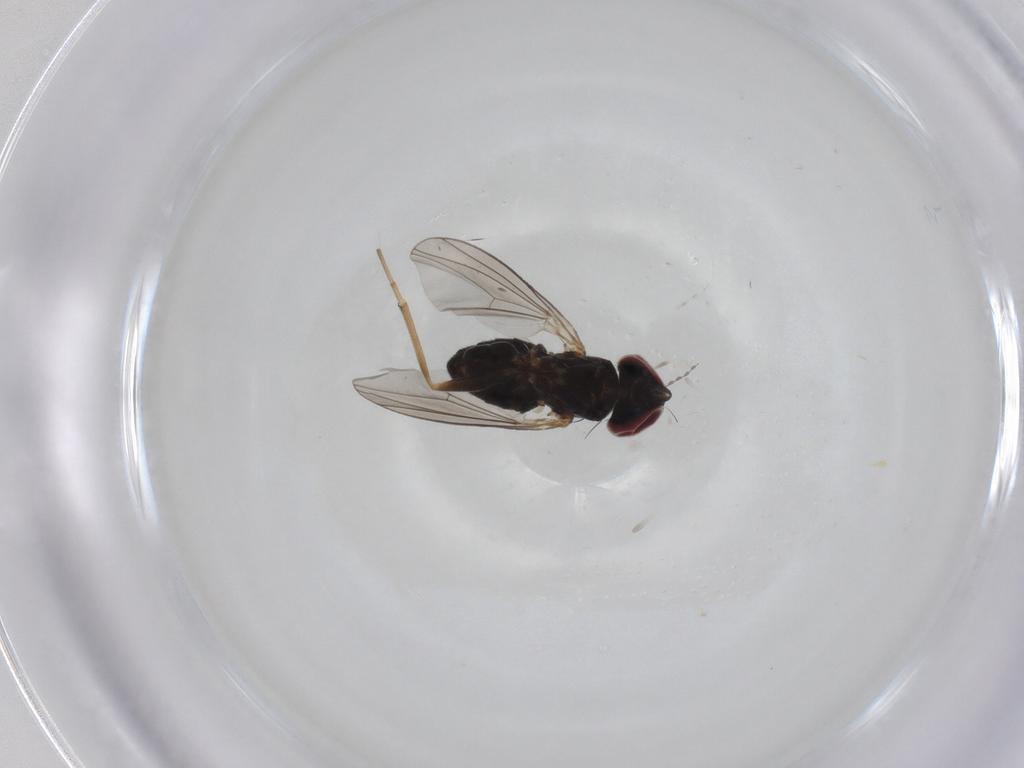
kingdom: Animalia
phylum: Arthropoda
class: Insecta
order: Diptera
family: Dolichopodidae
